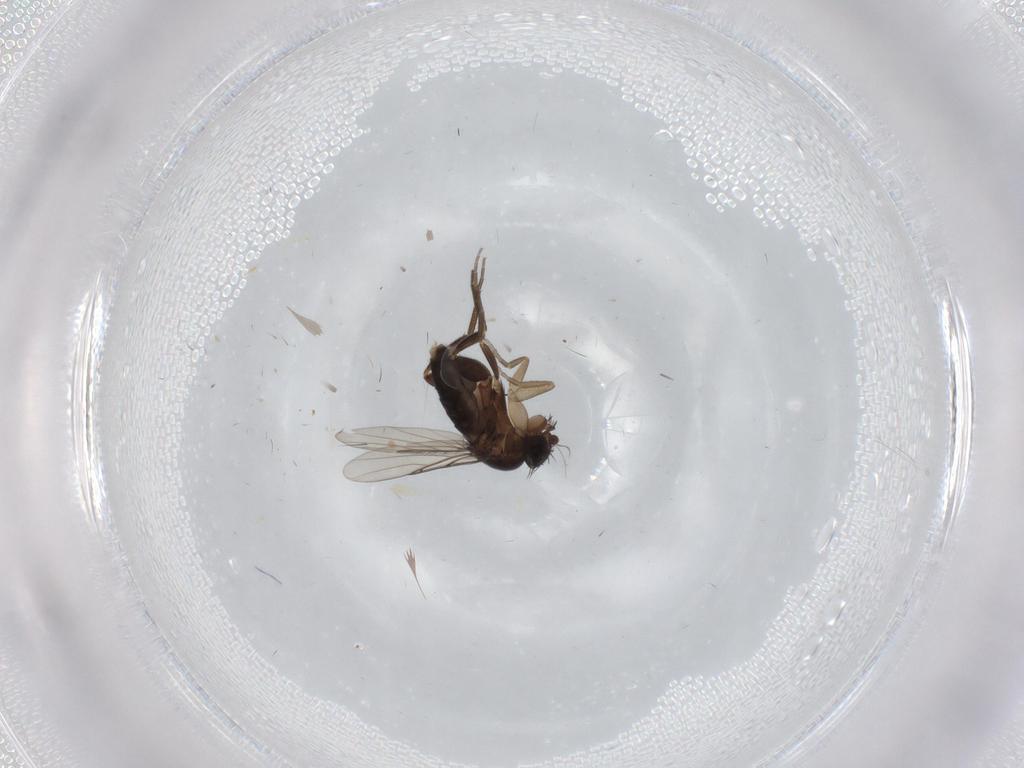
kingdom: Animalia
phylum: Arthropoda
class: Insecta
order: Diptera
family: Phoridae
